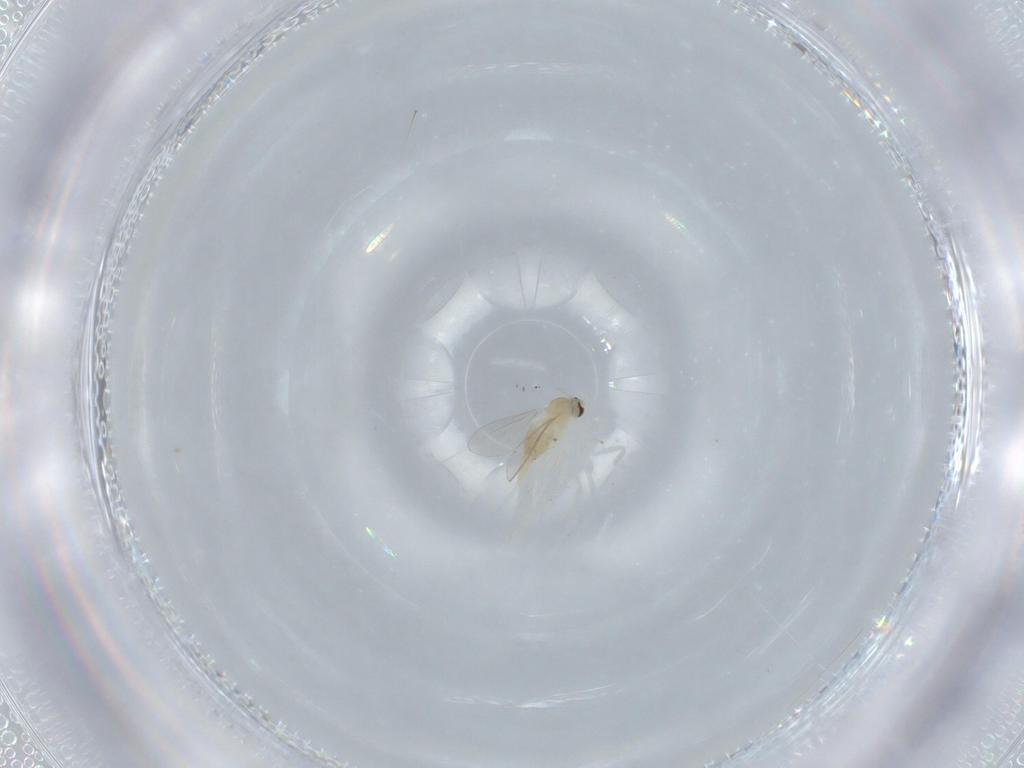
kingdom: Animalia
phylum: Arthropoda
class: Insecta
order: Diptera
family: Cecidomyiidae
